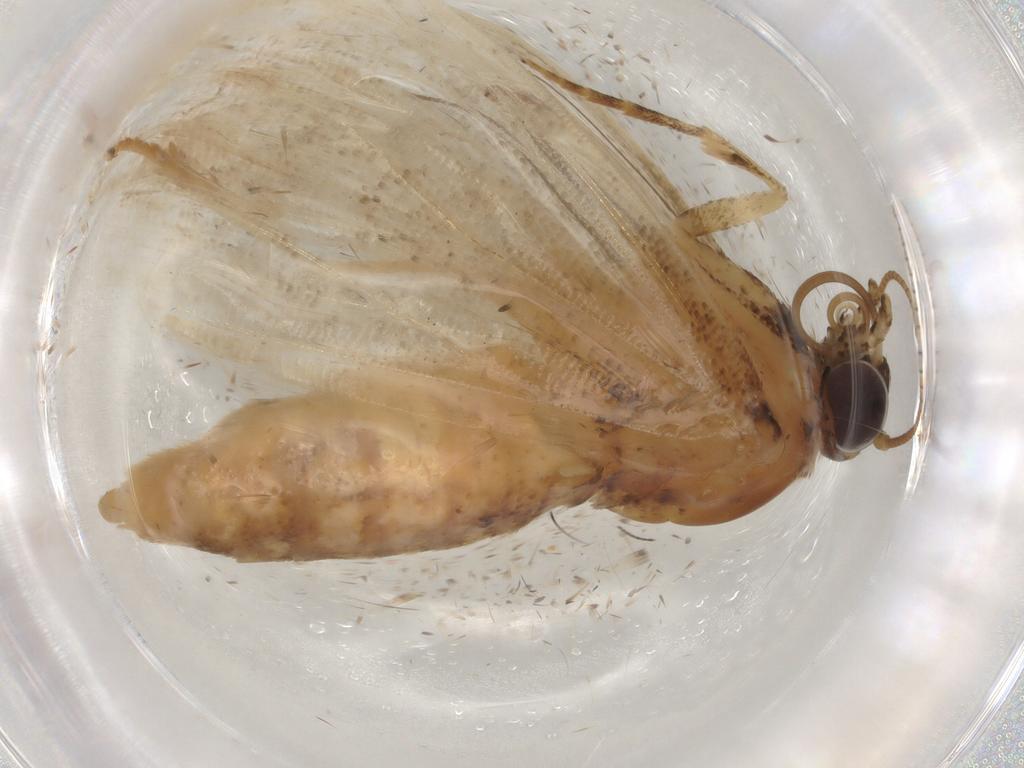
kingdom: Animalia
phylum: Arthropoda
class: Insecta
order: Lepidoptera
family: Geometridae
